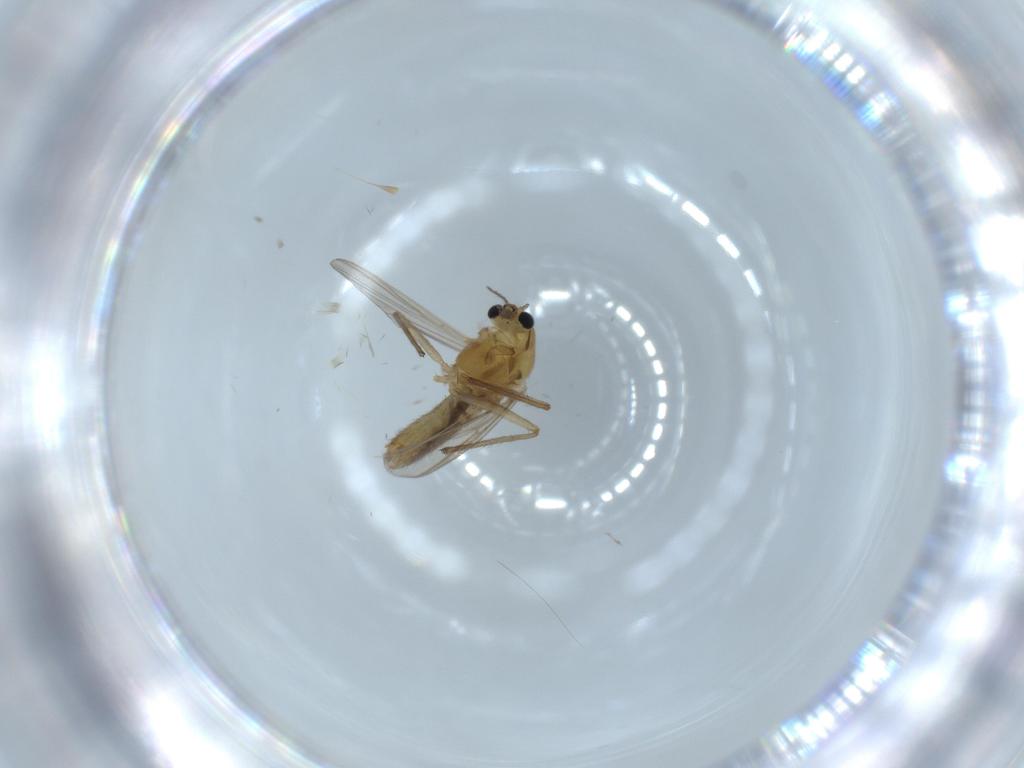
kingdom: Animalia
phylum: Arthropoda
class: Insecta
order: Diptera
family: Chironomidae
